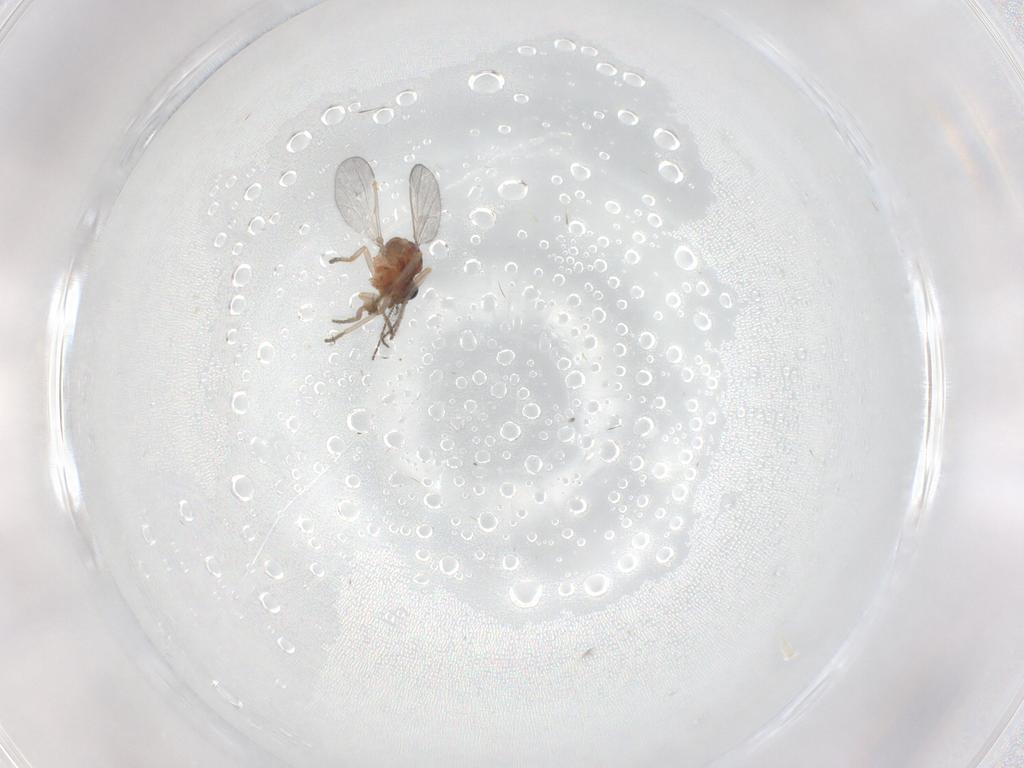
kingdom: Animalia
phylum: Arthropoda
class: Insecta
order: Diptera
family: Ceratopogonidae
